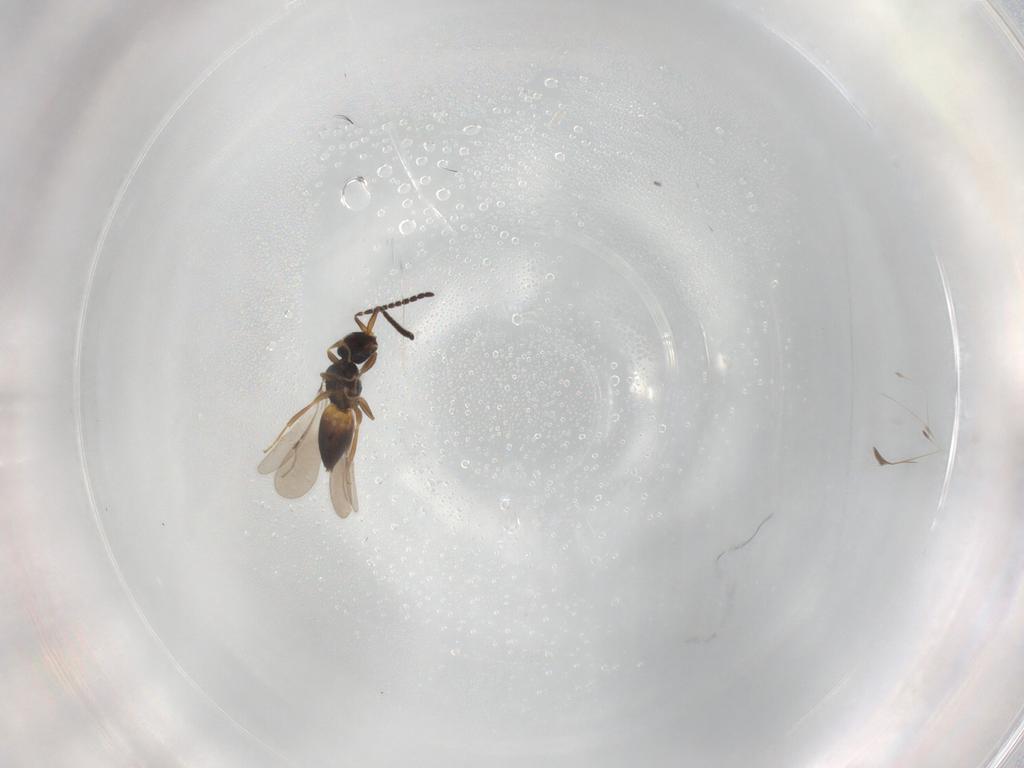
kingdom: Animalia
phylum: Arthropoda
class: Insecta
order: Hymenoptera
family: Ceraphronidae
